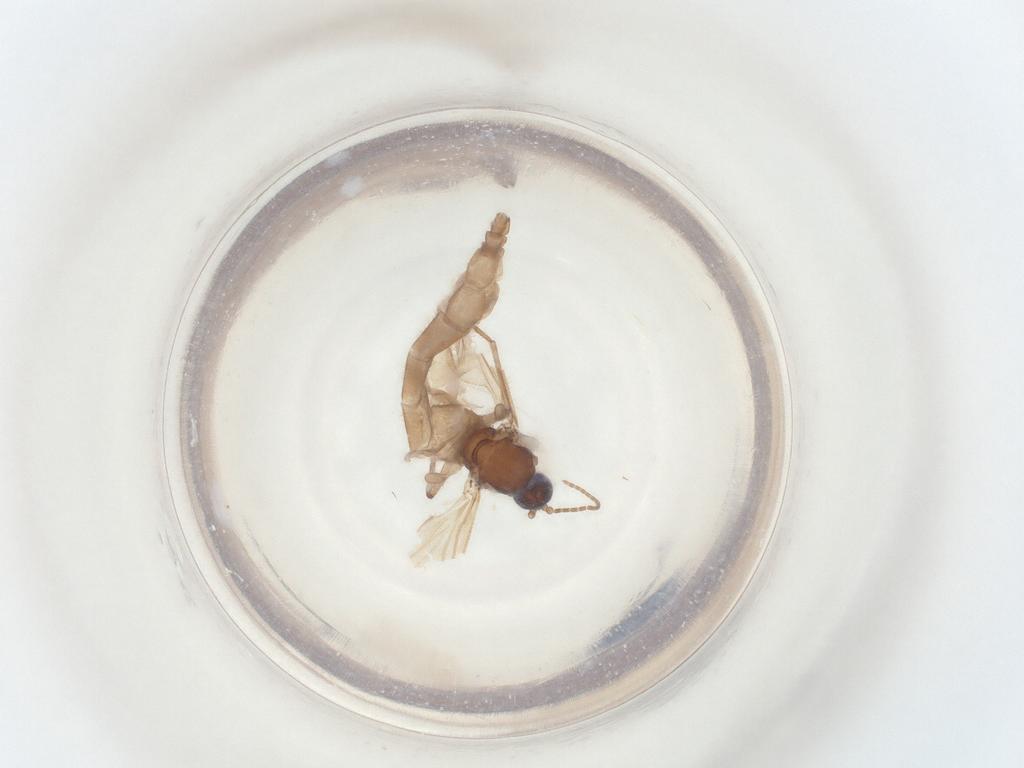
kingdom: Animalia
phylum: Arthropoda
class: Insecta
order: Diptera
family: Sciaridae
